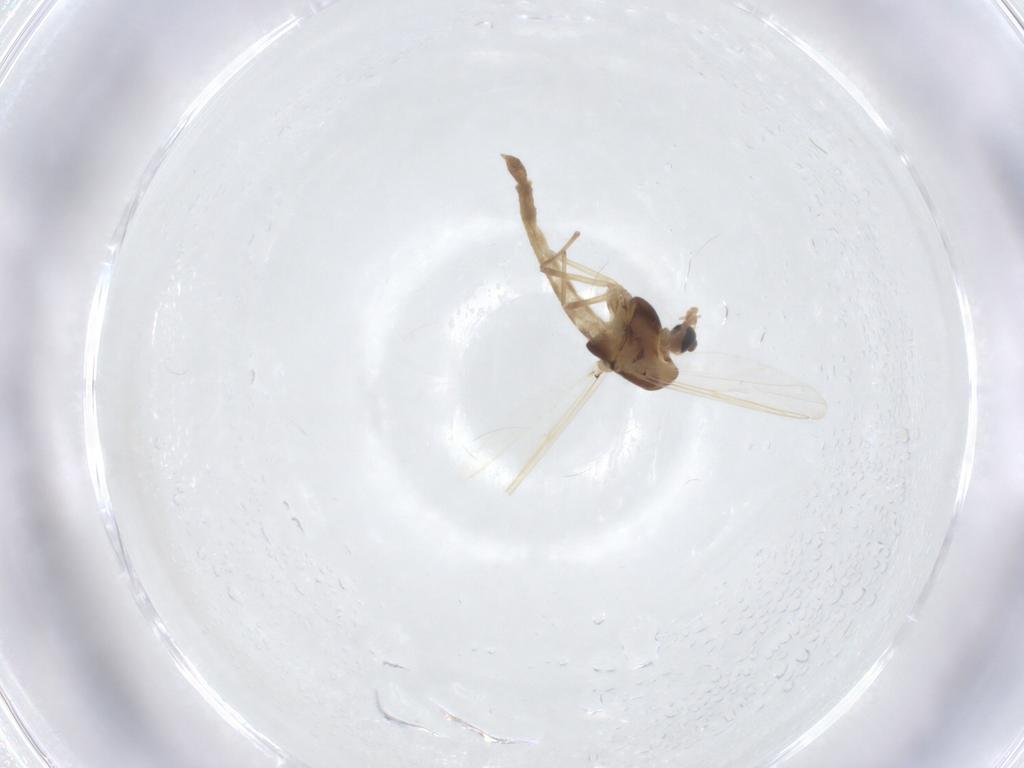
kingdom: Animalia
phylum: Arthropoda
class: Insecta
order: Diptera
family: Chironomidae
